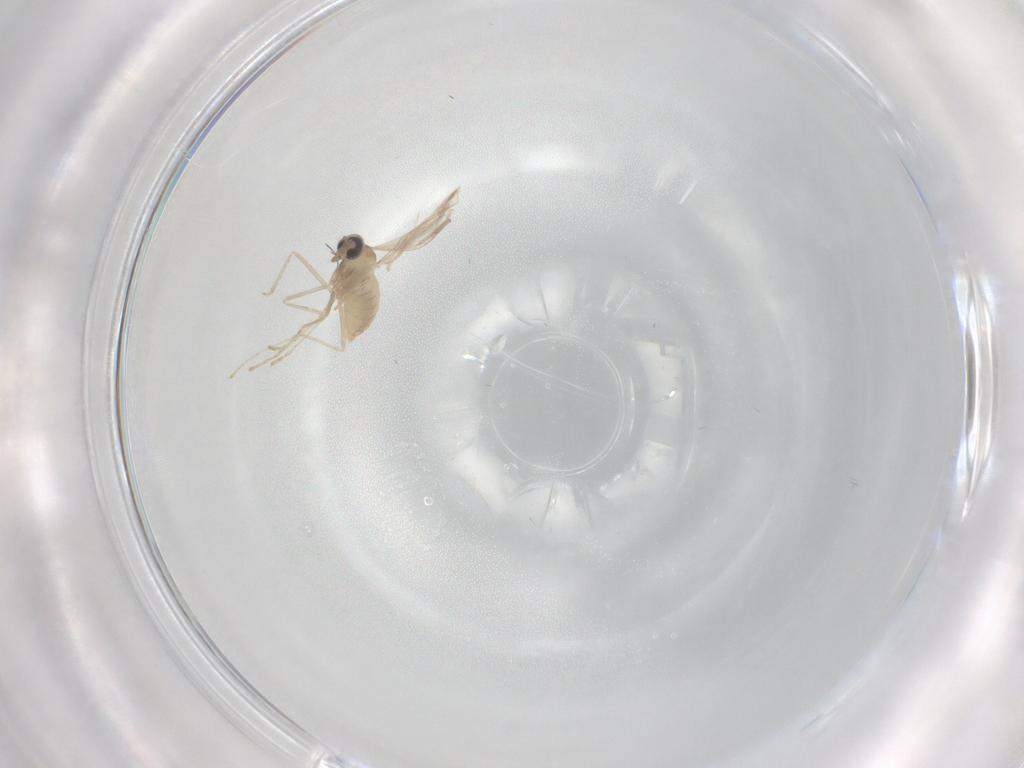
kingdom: Animalia
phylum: Arthropoda
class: Insecta
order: Diptera
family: Cecidomyiidae
